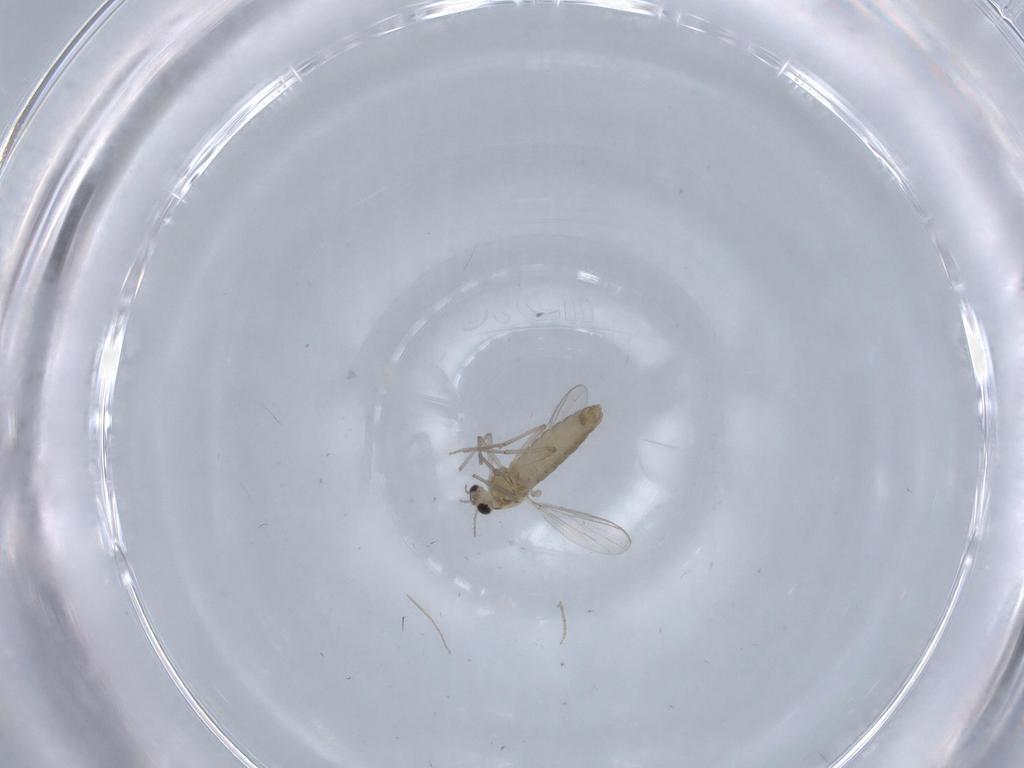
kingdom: Animalia
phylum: Arthropoda
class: Insecta
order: Diptera
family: Chironomidae
